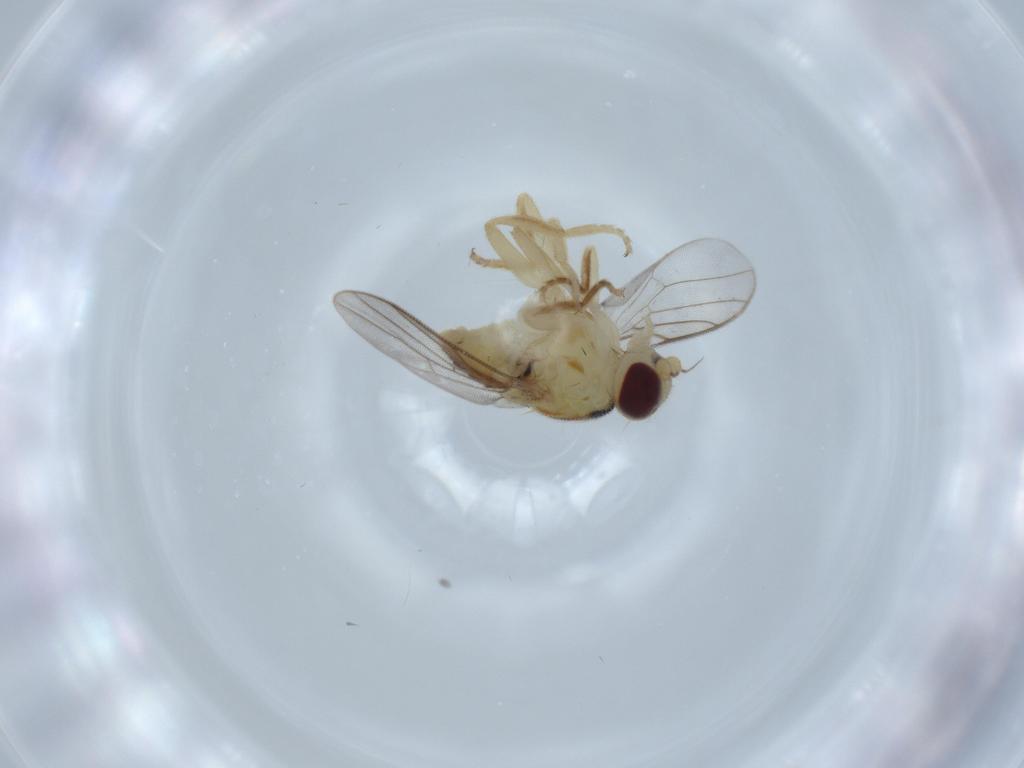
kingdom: Animalia
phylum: Arthropoda
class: Insecta
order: Diptera
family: Chloropidae
